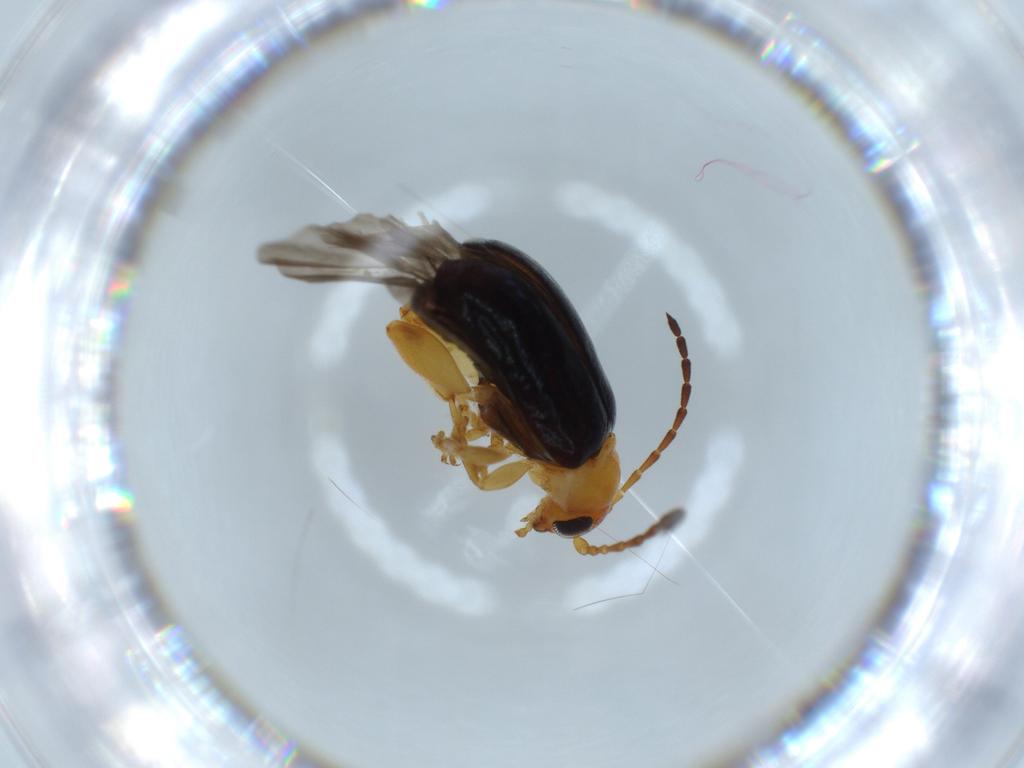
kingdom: Animalia
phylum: Arthropoda
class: Insecta
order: Coleoptera
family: Chrysomelidae
